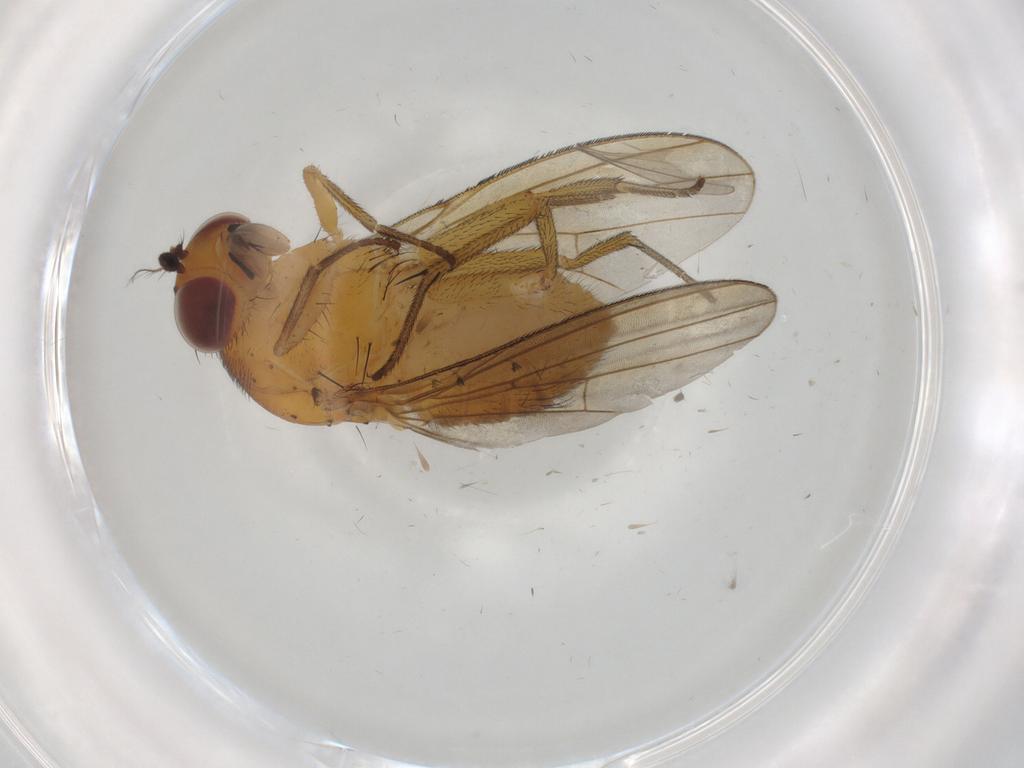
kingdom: Animalia
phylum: Arthropoda
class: Insecta
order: Diptera
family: Lauxaniidae
